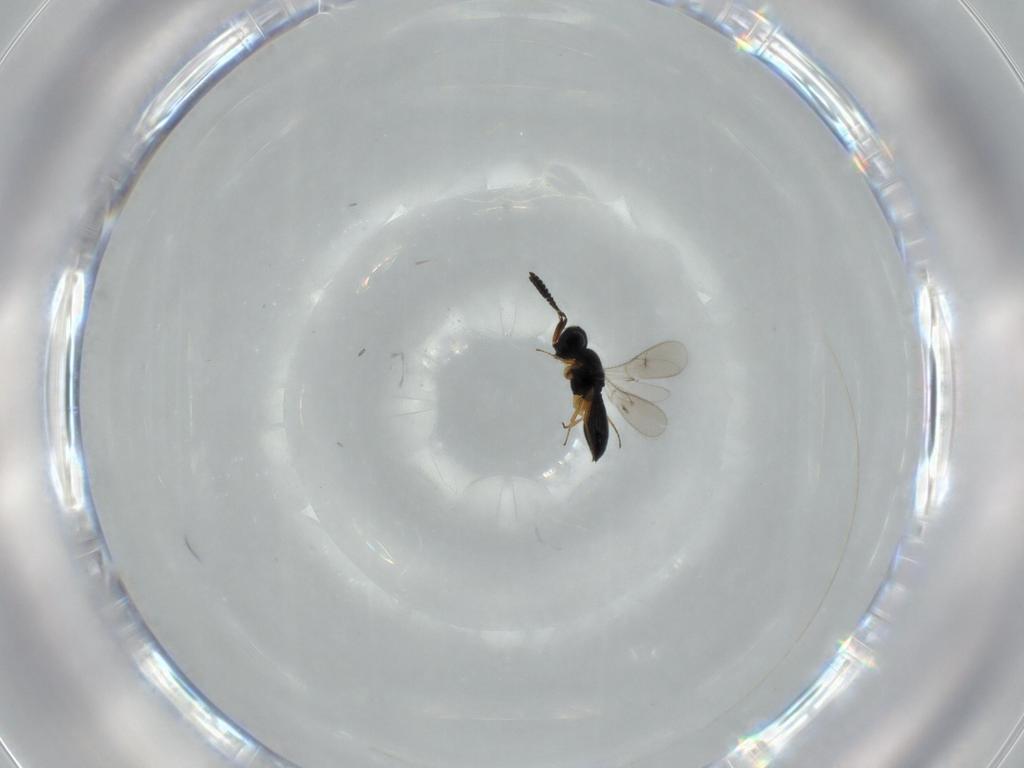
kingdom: Animalia
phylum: Arthropoda
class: Insecta
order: Hymenoptera
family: Scelionidae
